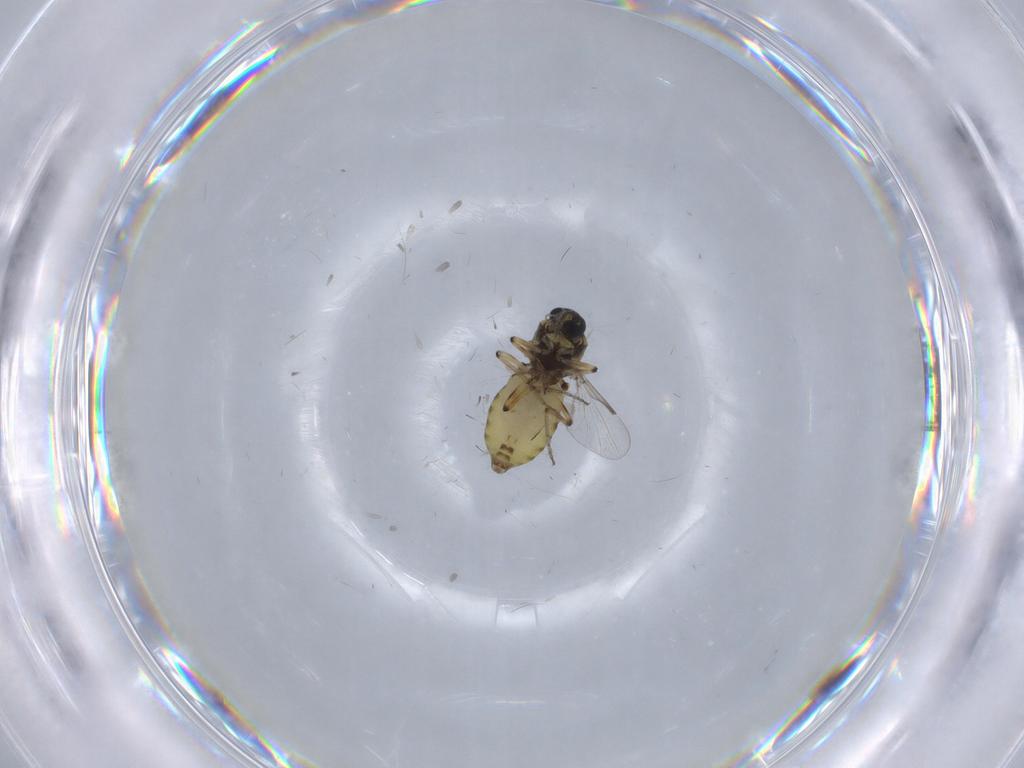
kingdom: Animalia
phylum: Arthropoda
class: Insecta
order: Diptera
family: Ceratopogonidae
